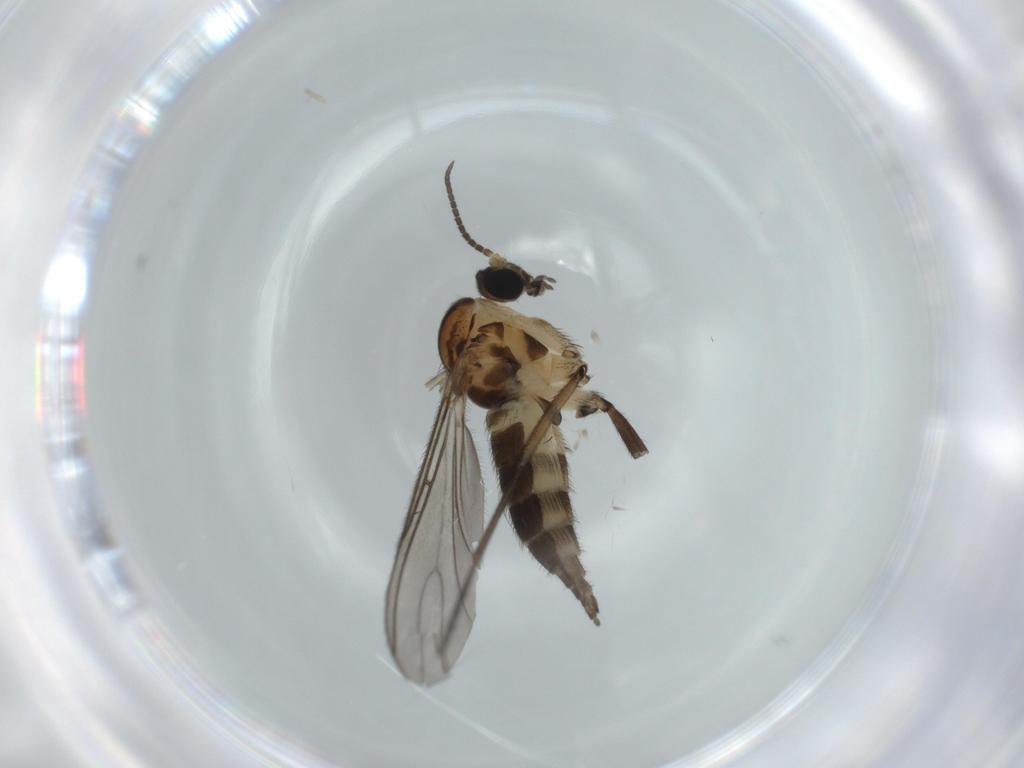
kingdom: Animalia
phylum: Arthropoda
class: Insecta
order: Diptera
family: Sciaridae
